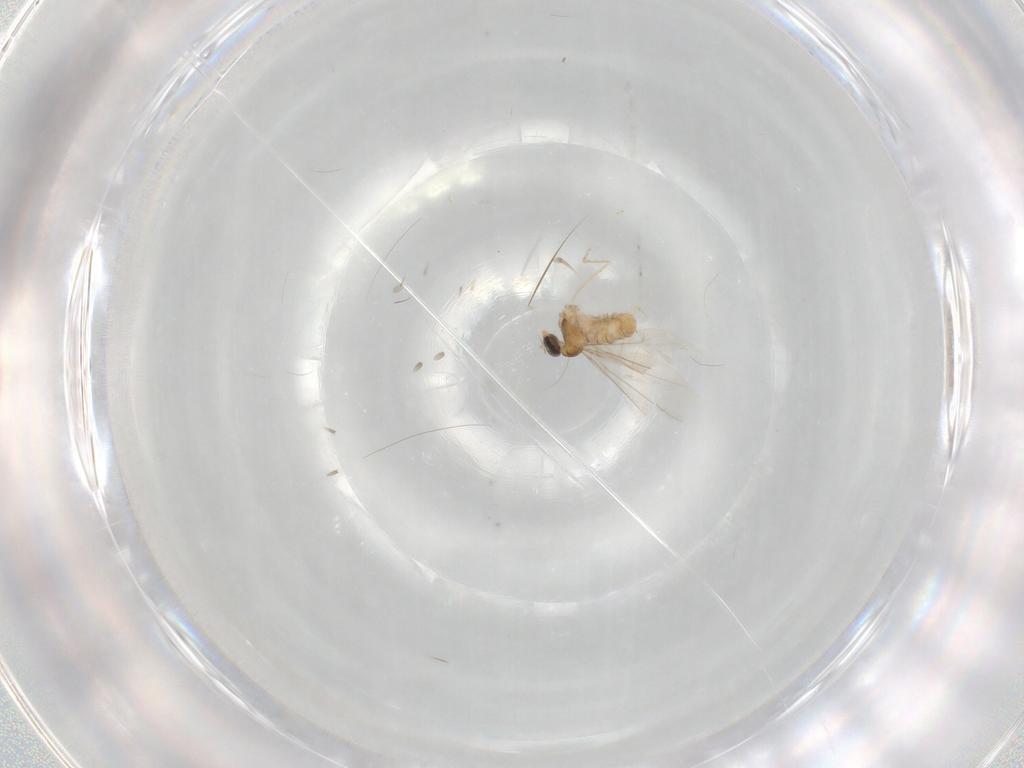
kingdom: Animalia
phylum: Arthropoda
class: Insecta
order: Diptera
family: Cecidomyiidae
